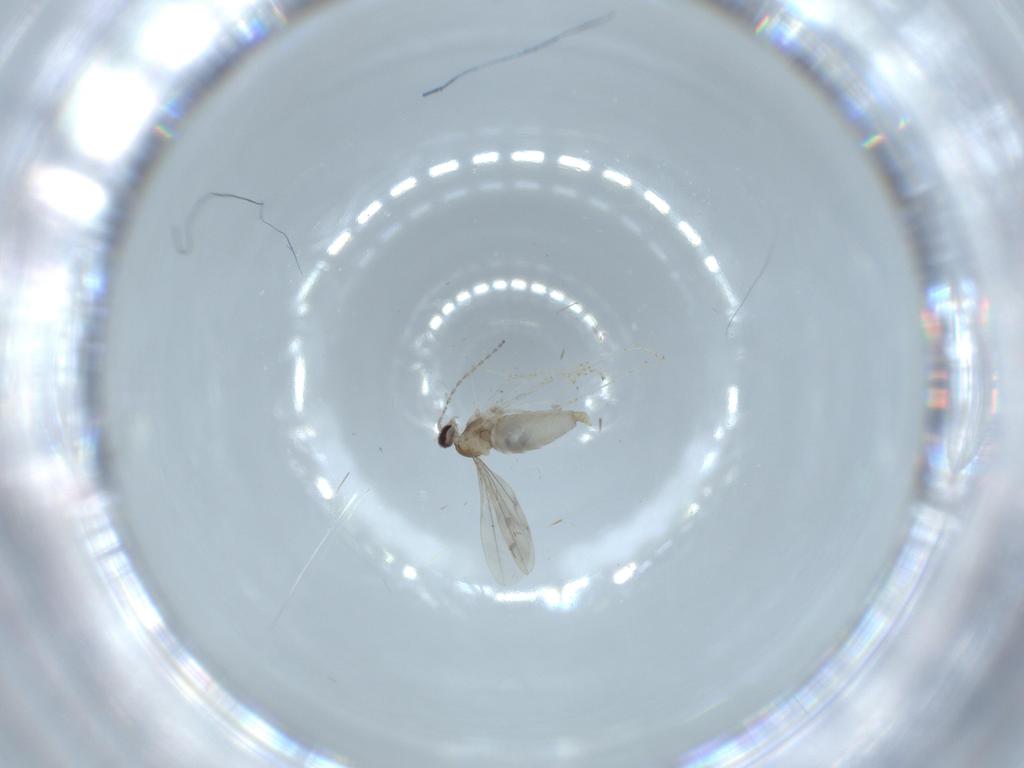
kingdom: Animalia
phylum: Arthropoda
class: Insecta
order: Diptera
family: Cecidomyiidae
